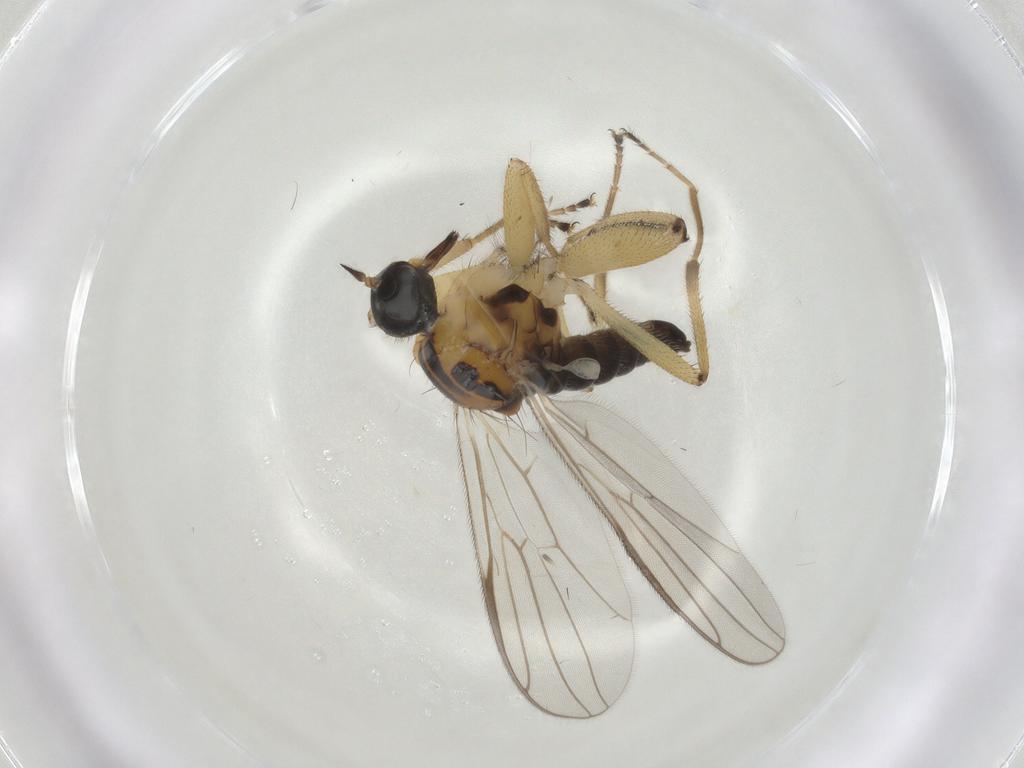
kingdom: Animalia
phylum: Arthropoda
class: Insecta
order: Diptera
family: Hybotidae
